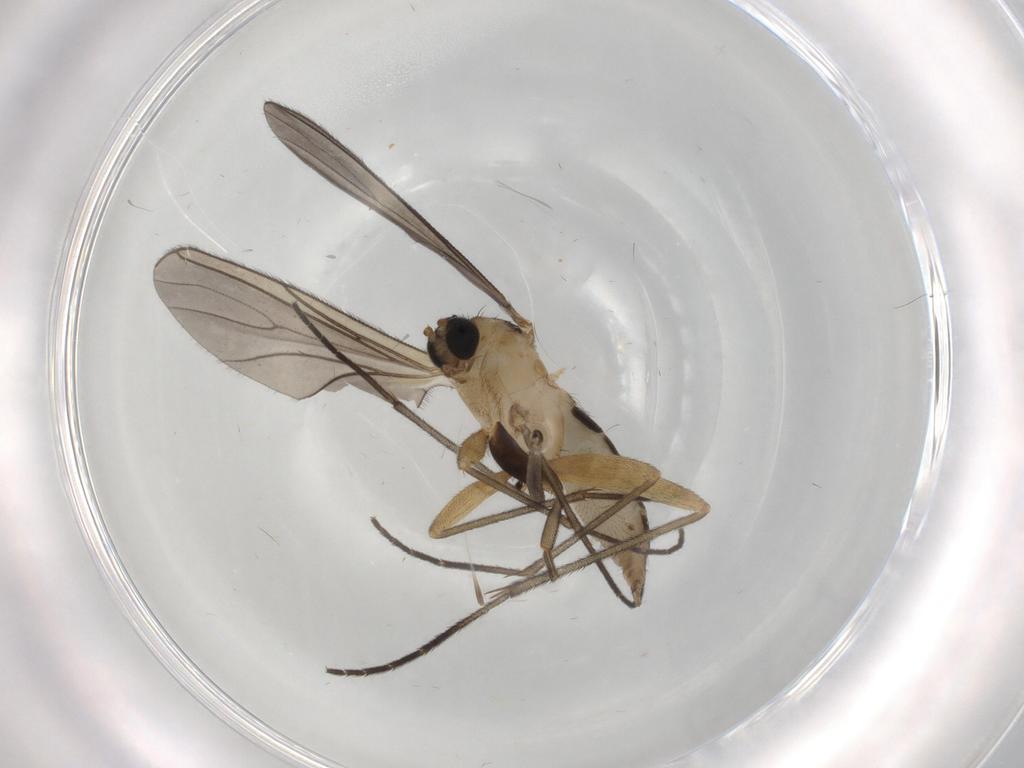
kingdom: Animalia
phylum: Arthropoda
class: Insecta
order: Diptera
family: Sciaridae
